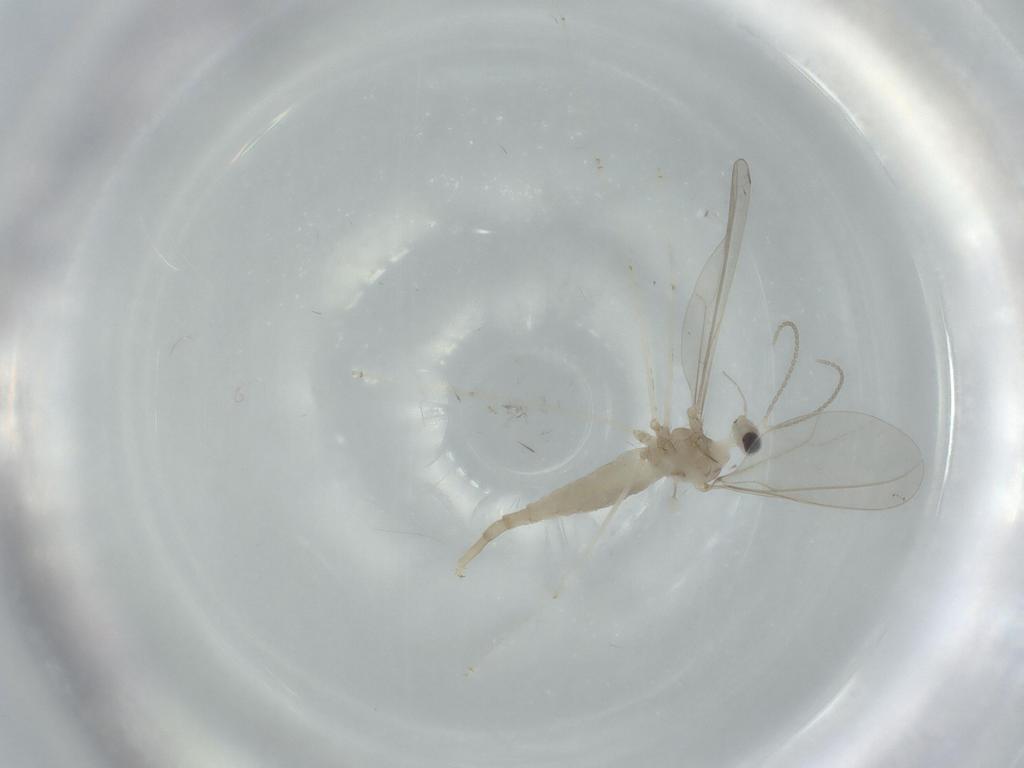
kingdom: Animalia
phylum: Arthropoda
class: Insecta
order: Diptera
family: Cecidomyiidae
